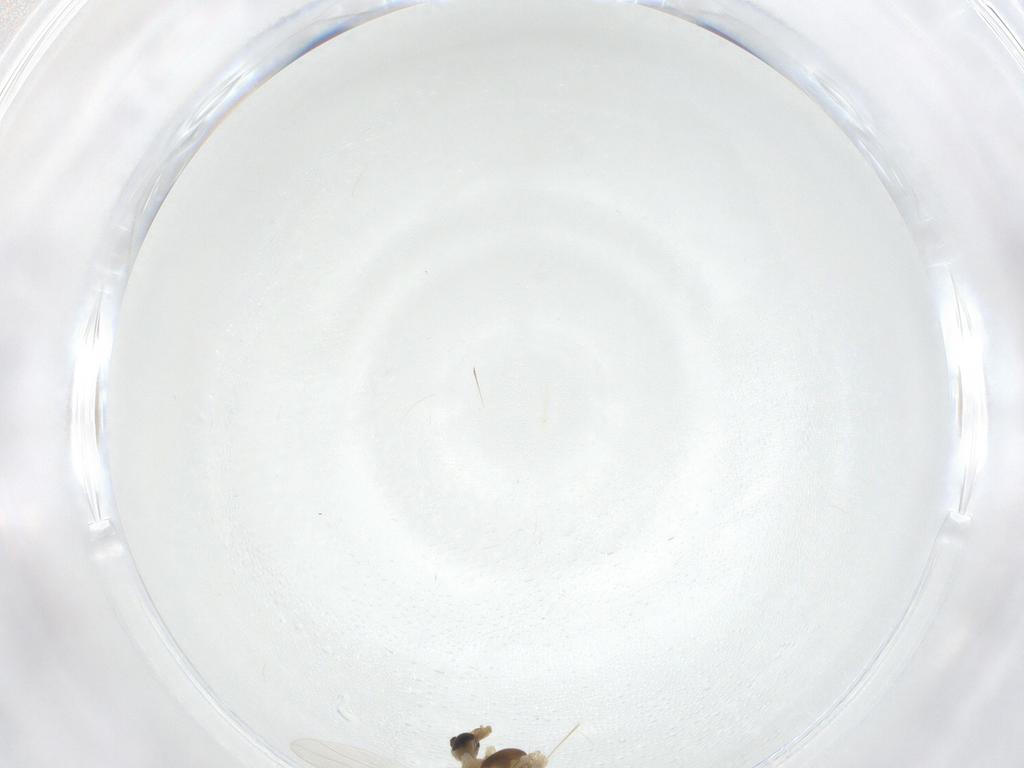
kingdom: Animalia
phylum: Arthropoda
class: Insecta
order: Diptera
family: Chironomidae
